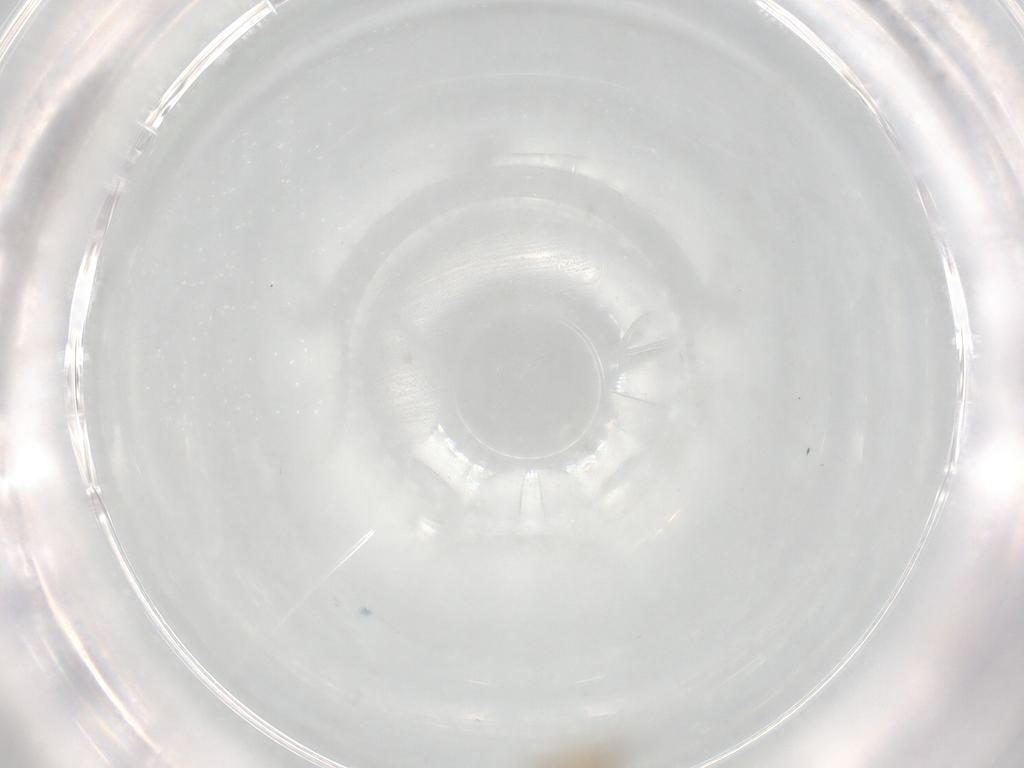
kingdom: Animalia
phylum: Arthropoda
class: Insecta
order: Diptera
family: Psychodidae
